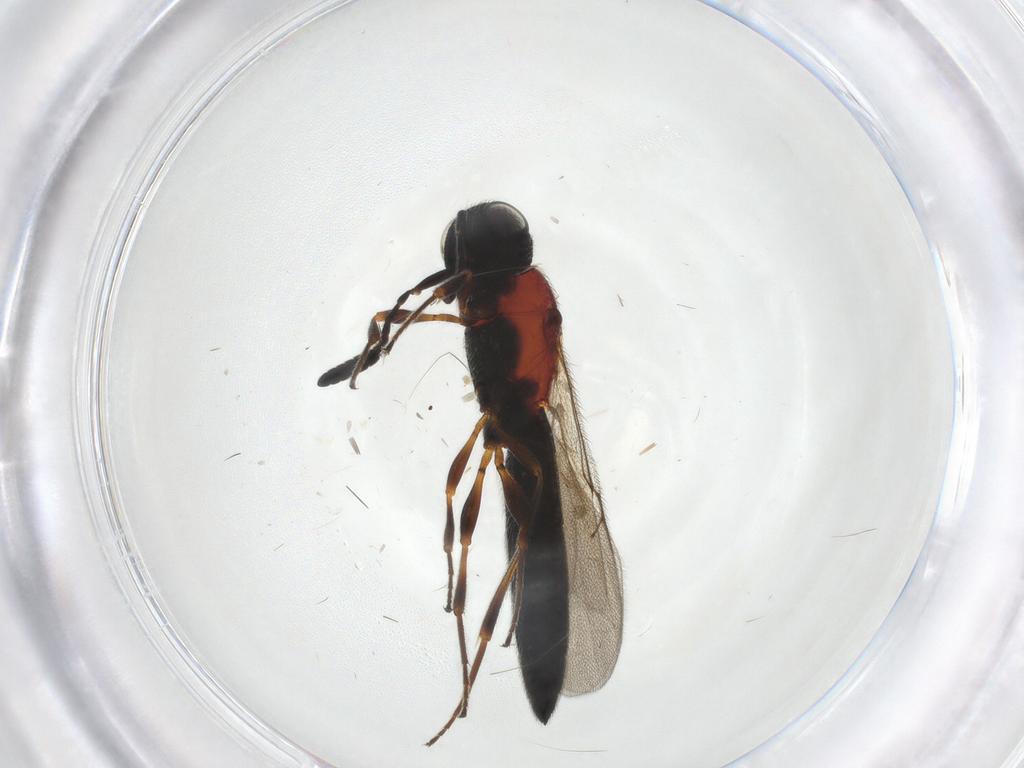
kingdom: Animalia
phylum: Arthropoda
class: Insecta
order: Hymenoptera
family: Scelionidae
